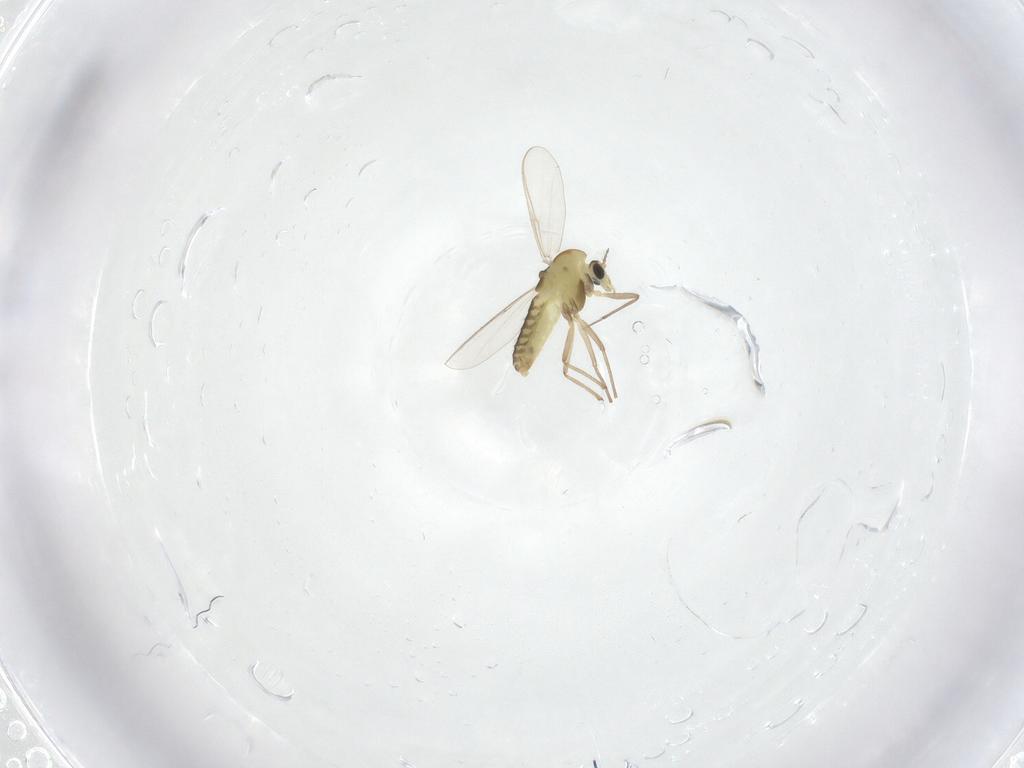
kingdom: Animalia
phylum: Arthropoda
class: Insecta
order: Diptera
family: Chironomidae
